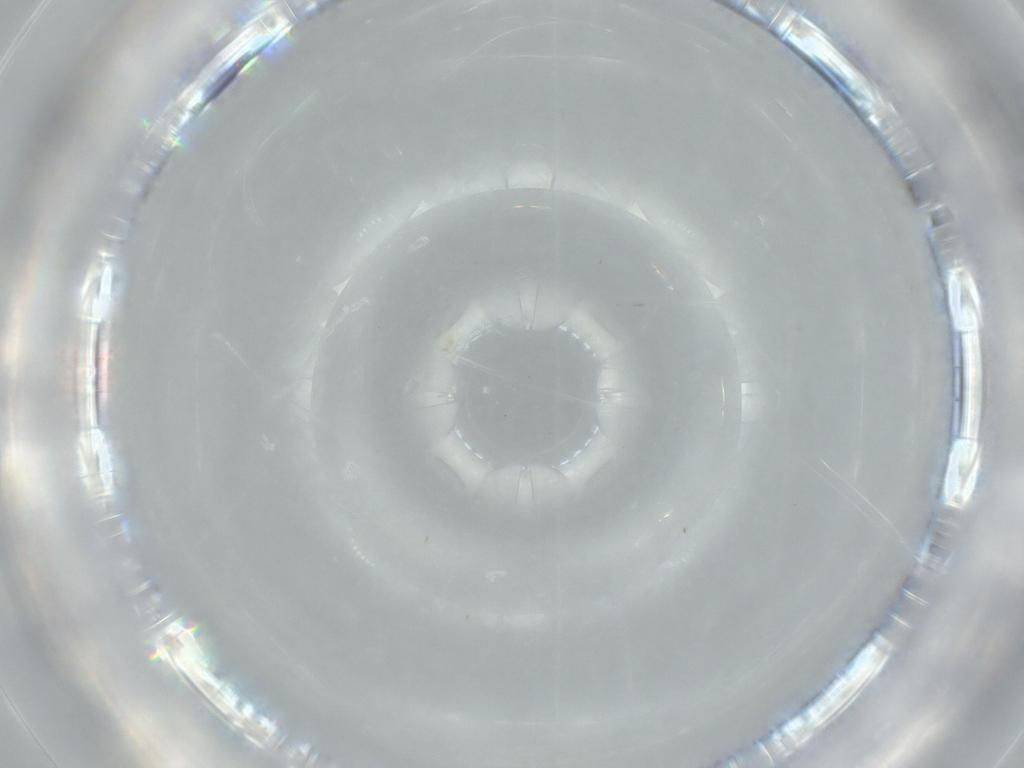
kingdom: Animalia
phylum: Arthropoda
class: Insecta
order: Diptera
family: Cecidomyiidae
